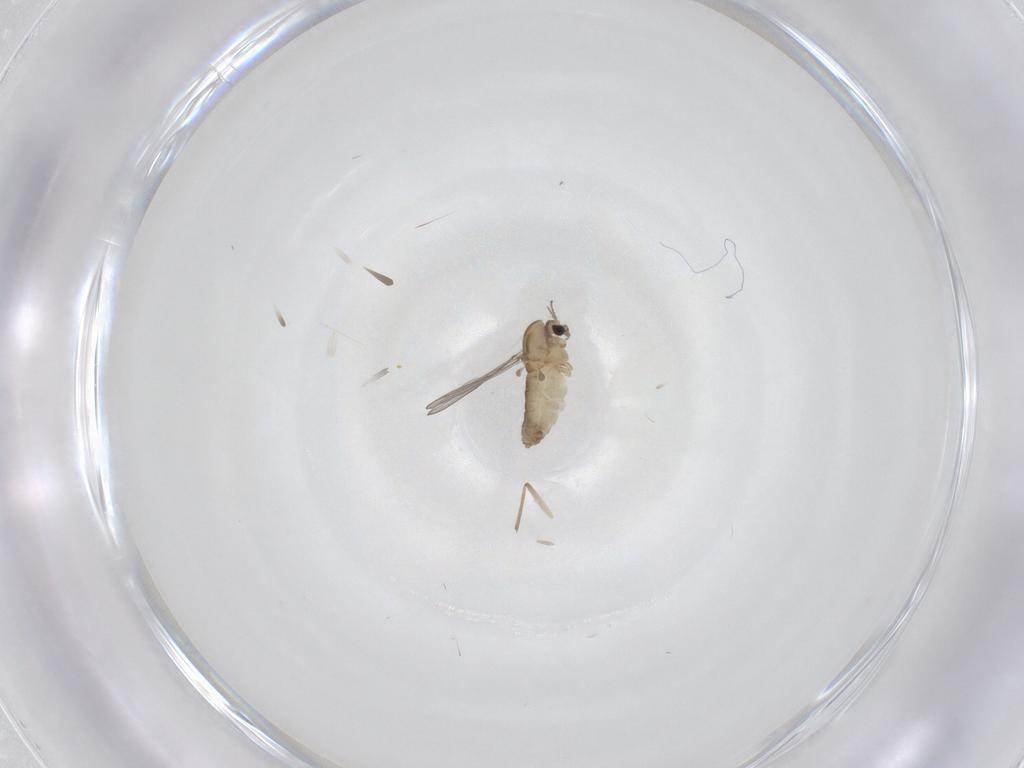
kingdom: Animalia
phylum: Arthropoda
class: Insecta
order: Diptera
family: Chironomidae
